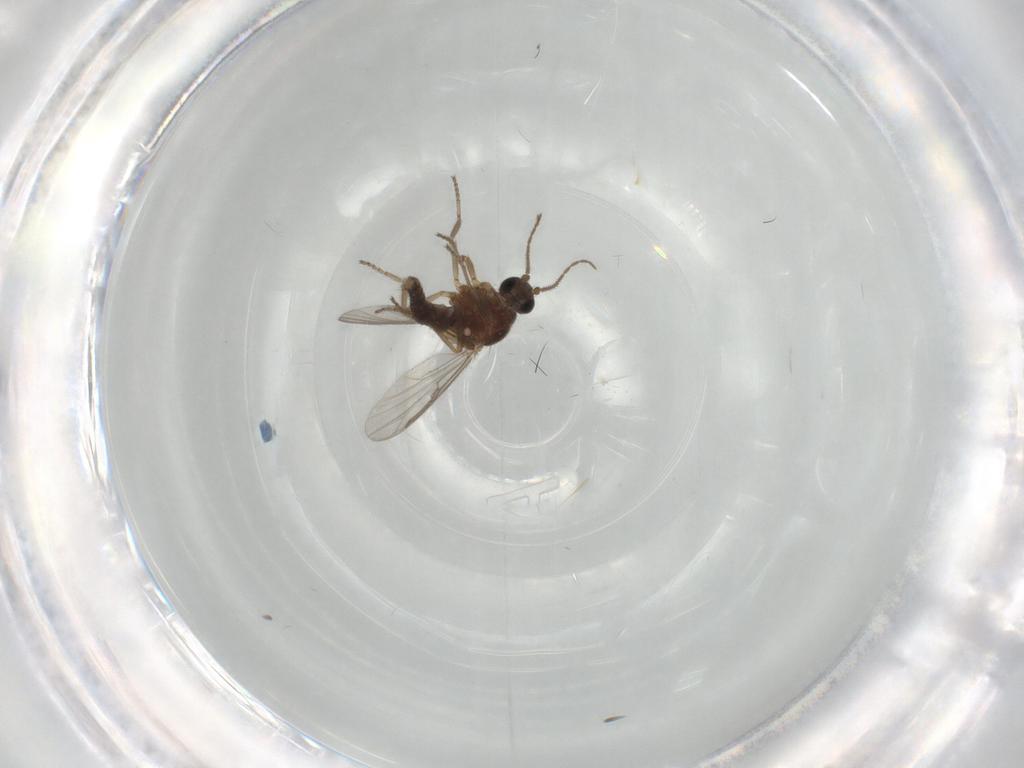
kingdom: Animalia
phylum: Arthropoda
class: Insecta
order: Diptera
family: Ceratopogonidae
